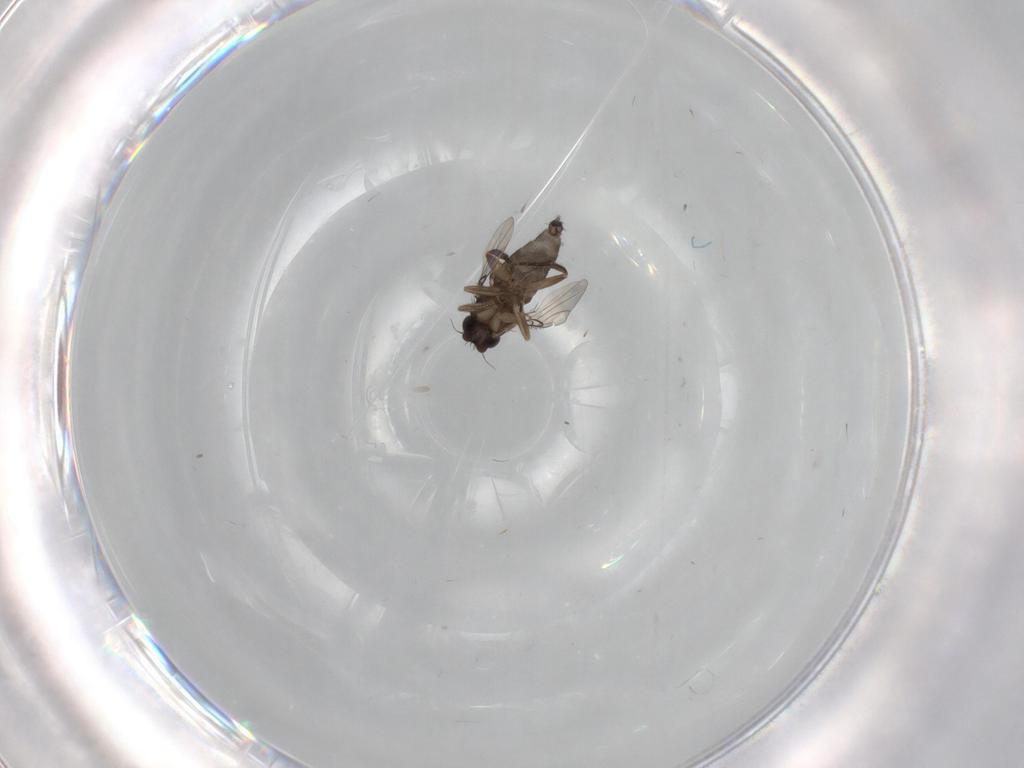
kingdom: Animalia
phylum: Arthropoda
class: Insecta
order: Diptera
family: Phoridae
